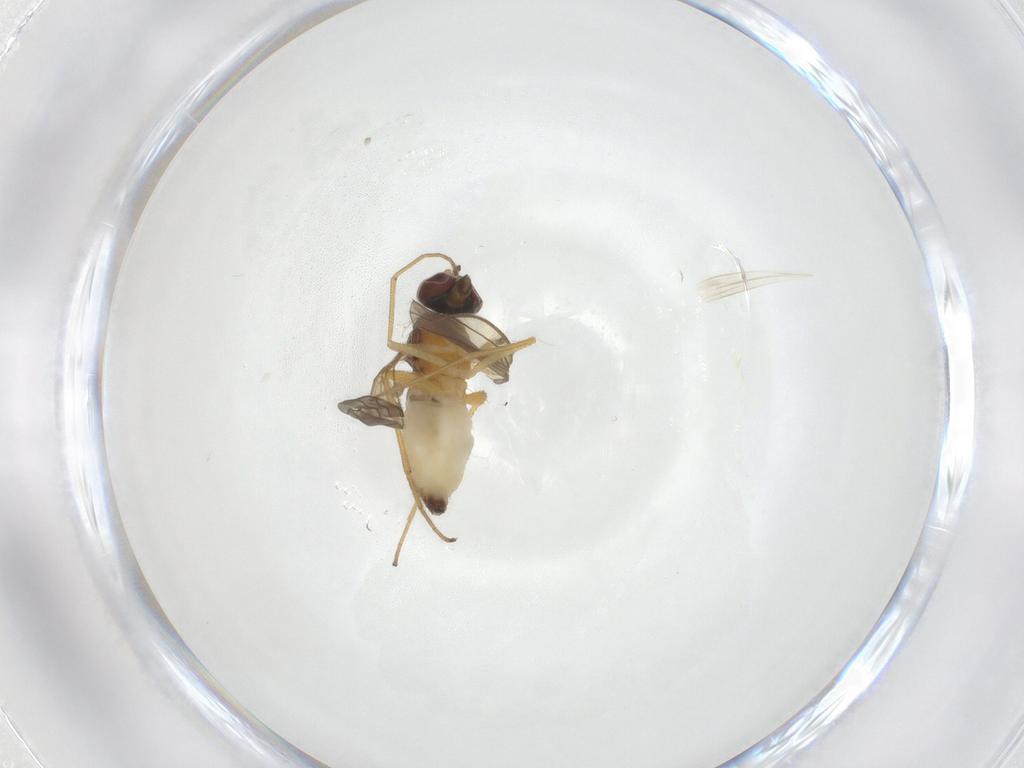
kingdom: Animalia
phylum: Arthropoda
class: Insecta
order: Diptera
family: Dolichopodidae
